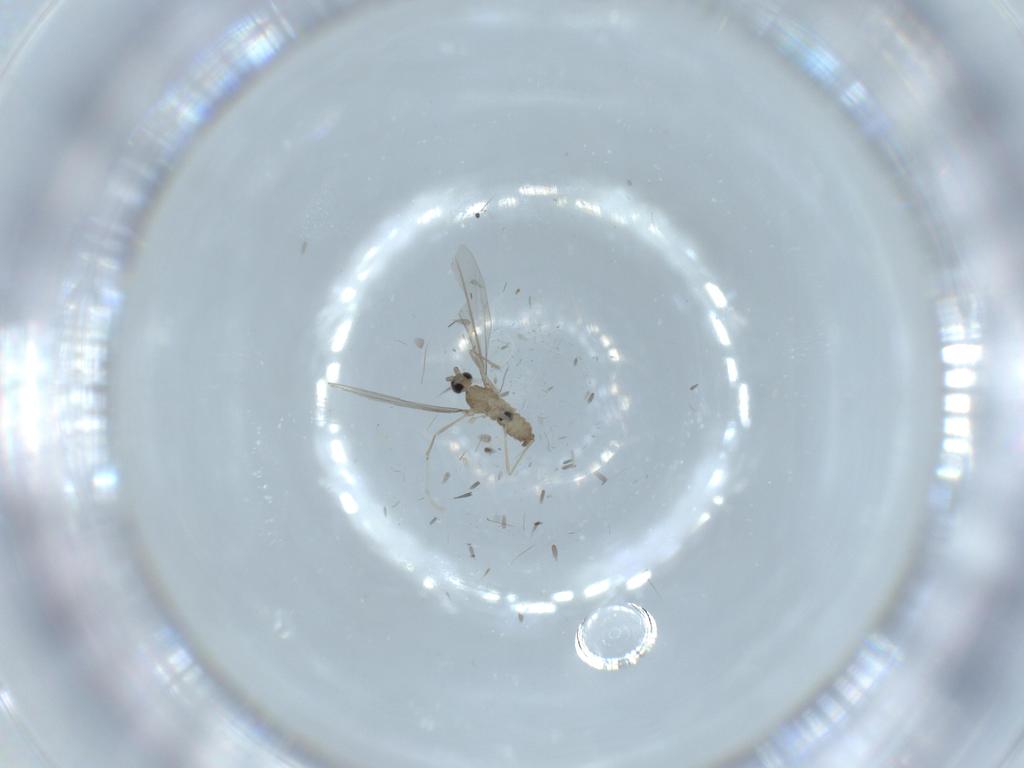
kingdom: Animalia
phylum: Arthropoda
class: Insecta
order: Diptera
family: Cecidomyiidae
